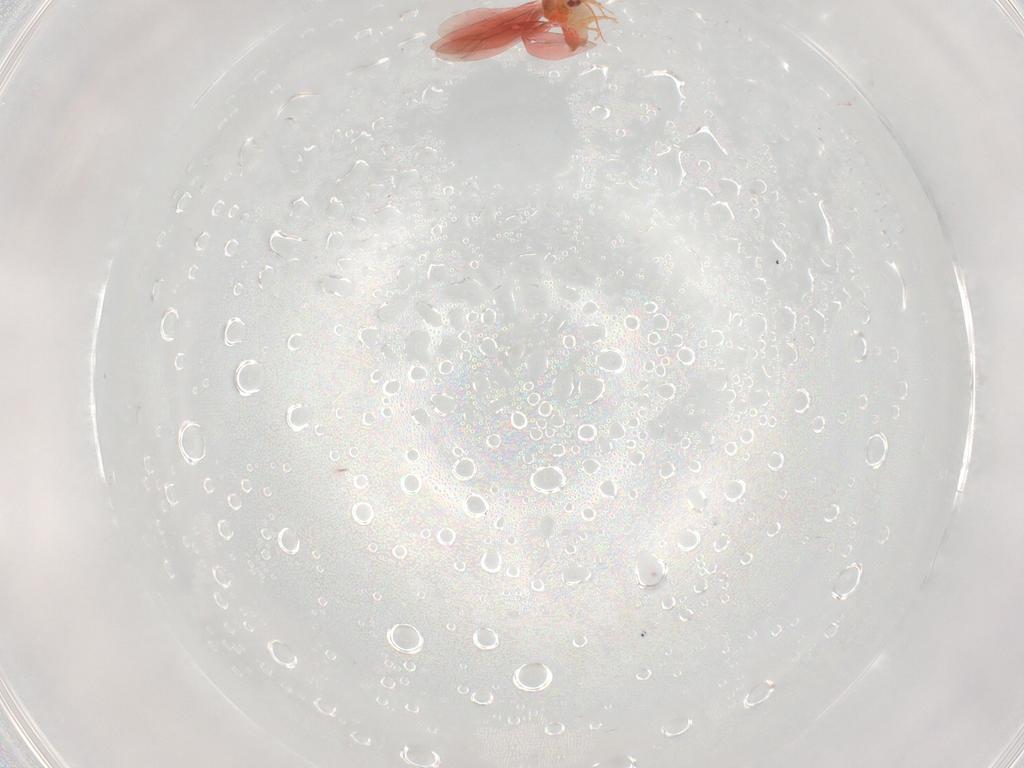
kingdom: Animalia
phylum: Arthropoda
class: Insecta
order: Hemiptera
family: Aleyrodidae
